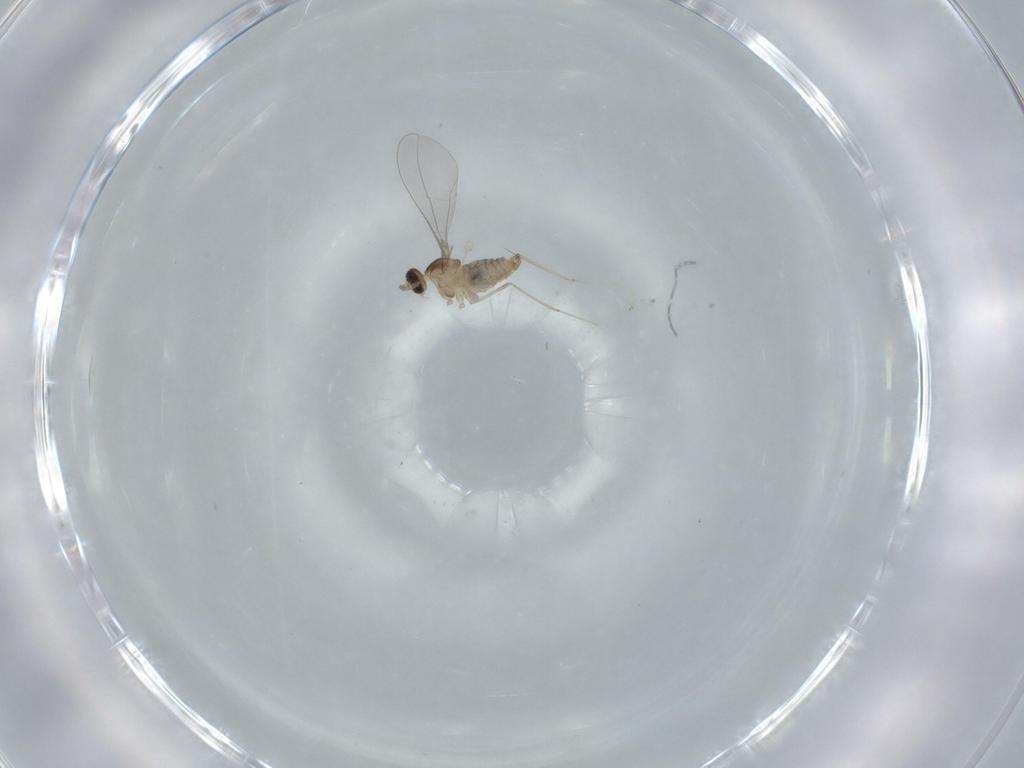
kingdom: Animalia
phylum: Arthropoda
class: Insecta
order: Diptera
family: Cecidomyiidae
